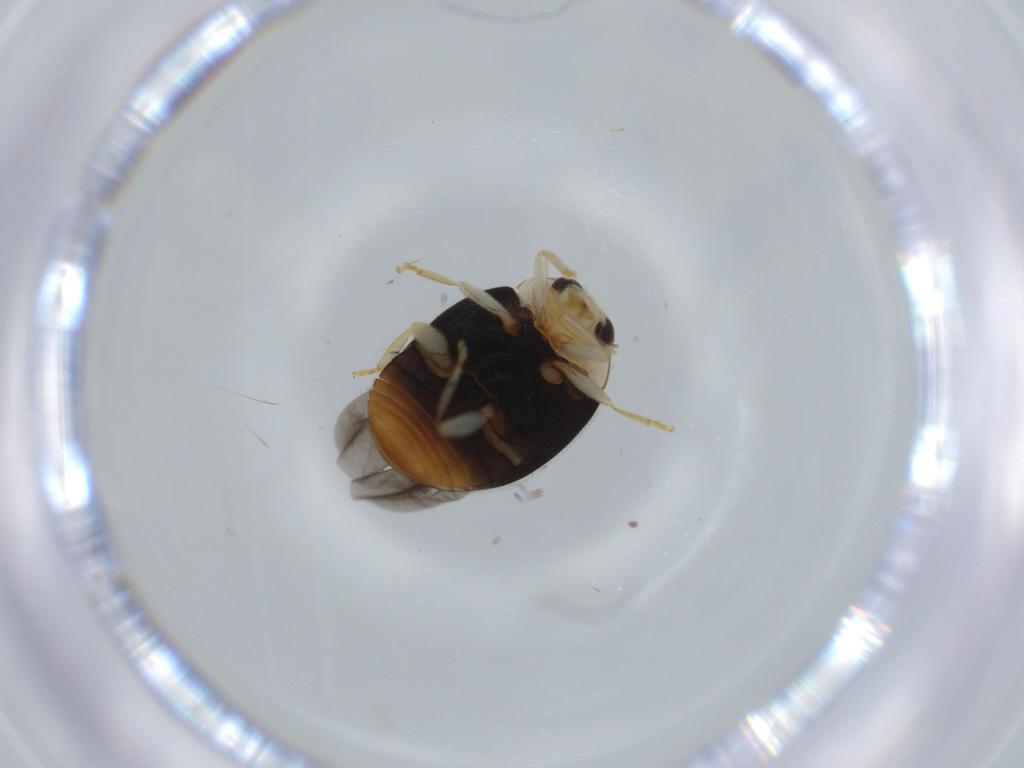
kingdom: Animalia
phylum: Arthropoda
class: Insecta
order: Coleoptera
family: Coccinellidae
